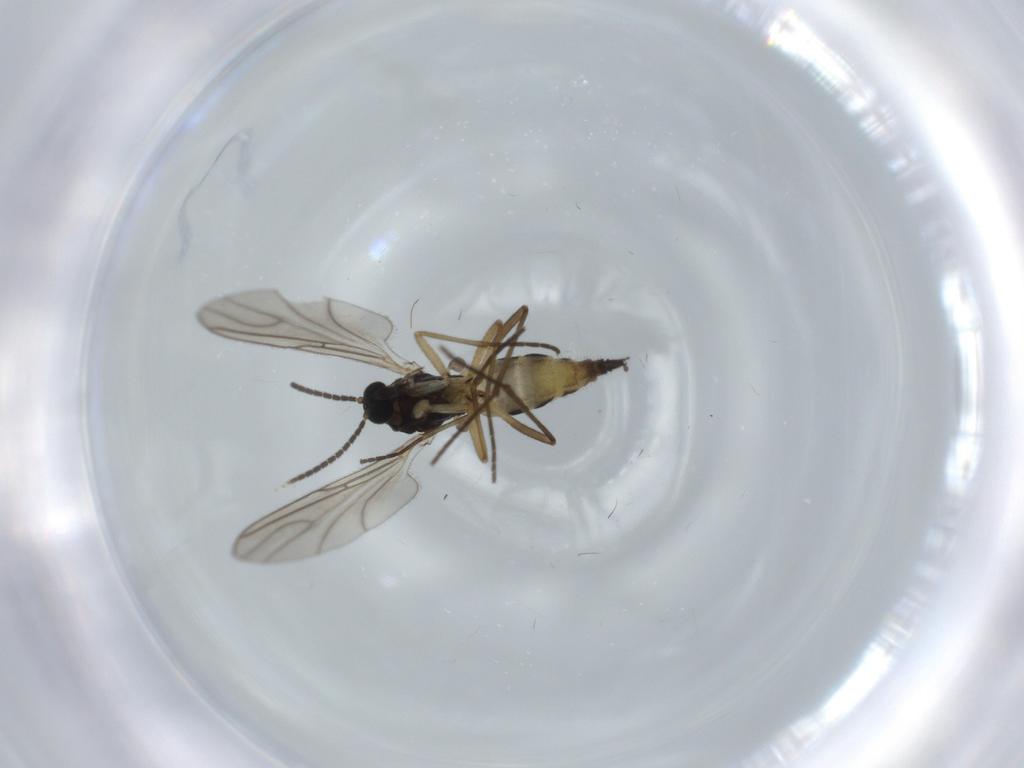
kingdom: Animalia
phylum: Arthropoda
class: Insecta
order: Diptera
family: Sciaridae
